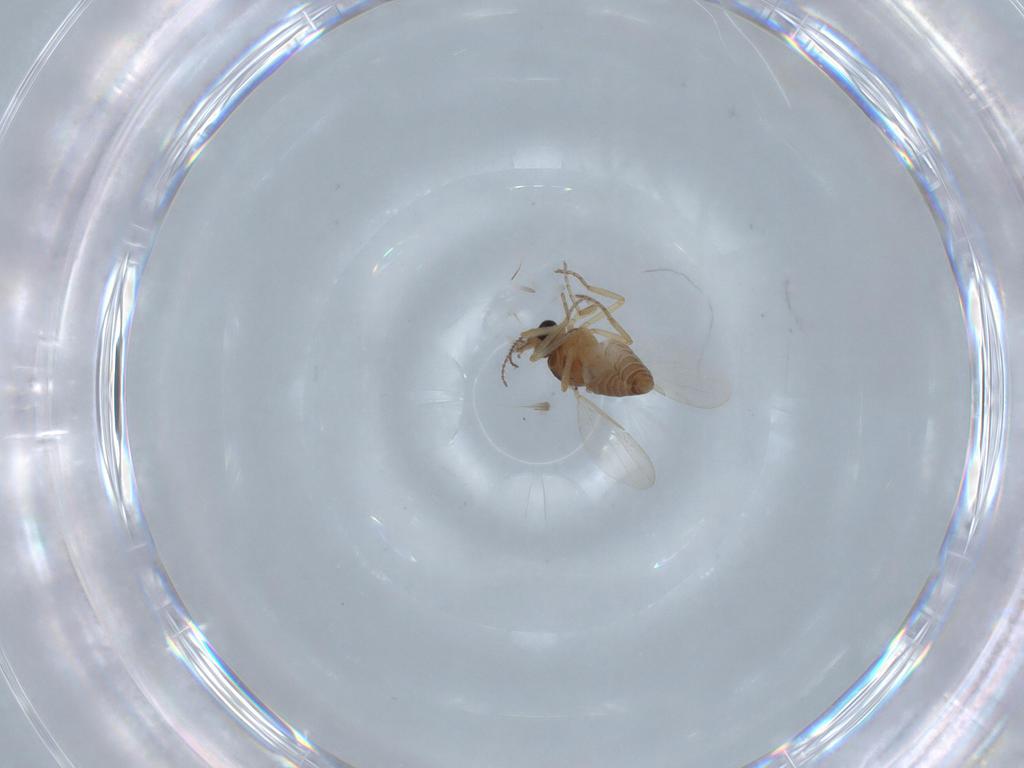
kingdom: Animalia
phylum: Arthropoda
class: Insecta
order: Diptera
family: Ceratopogonidae
